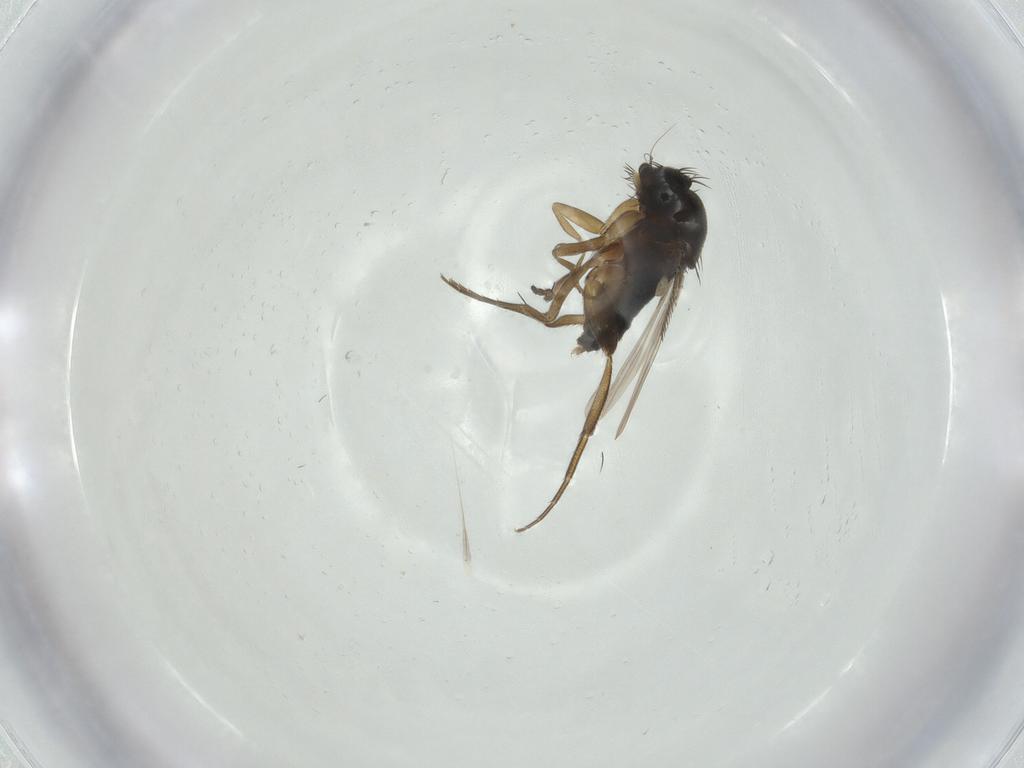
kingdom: Animalia
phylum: Arthropoda
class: Insecta
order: Diptera
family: Phoridae
